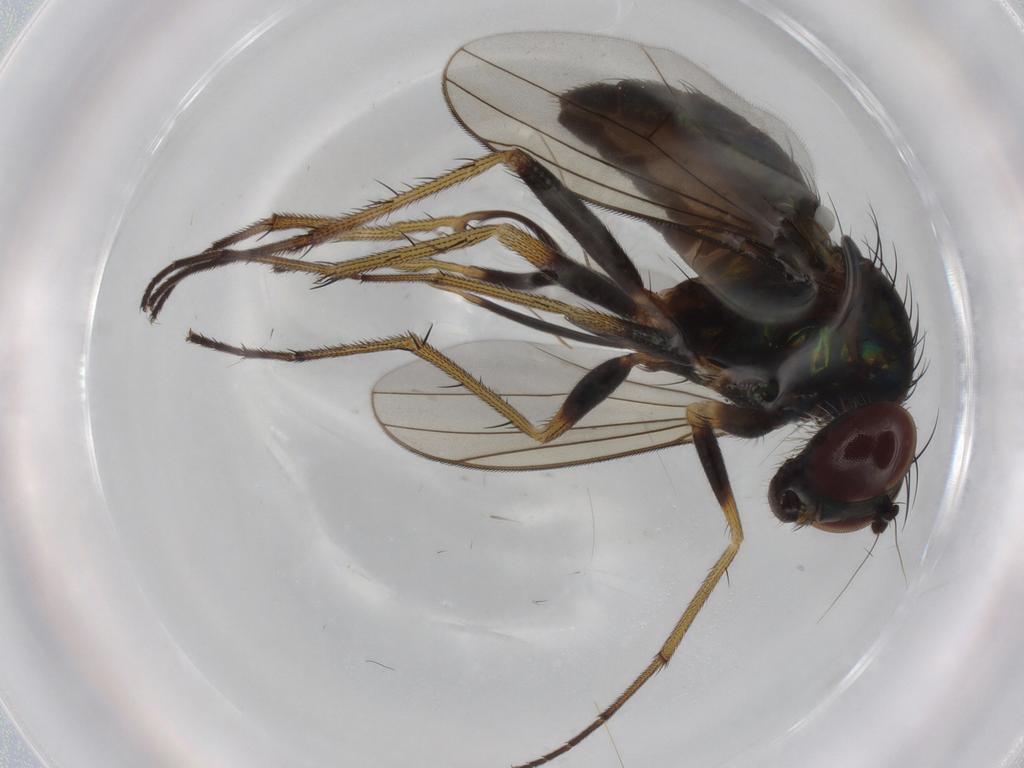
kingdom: Animalia
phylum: Arthropoda
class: Insecta
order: Diptera
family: Dolichopodidae
